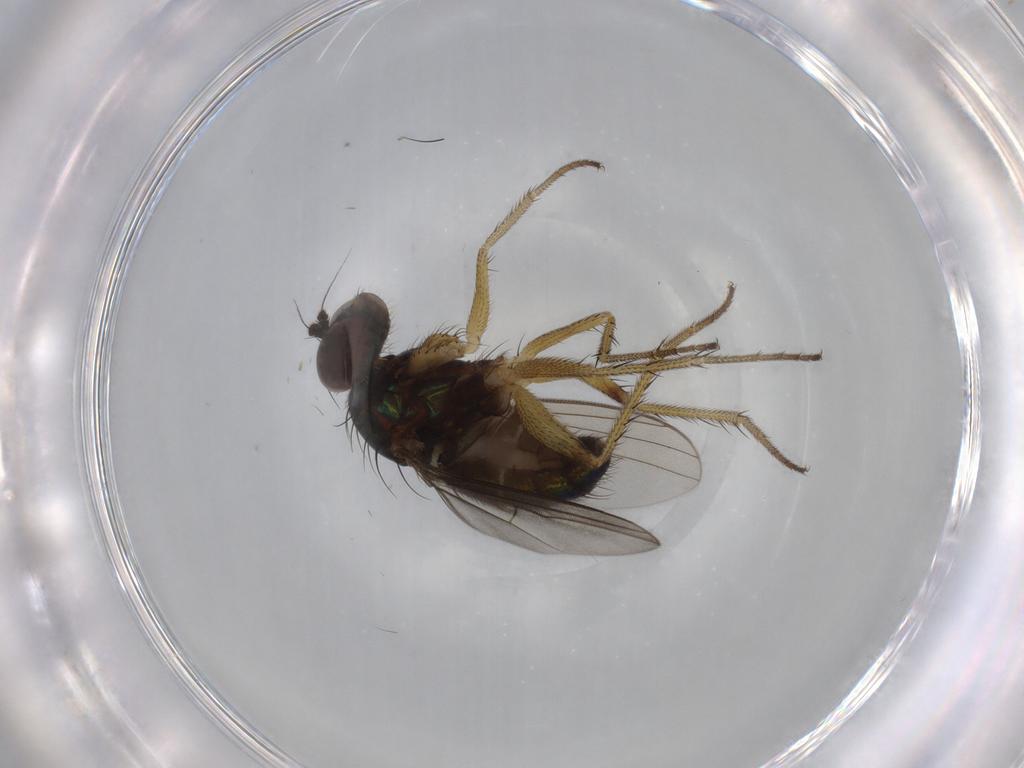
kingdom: Animalia
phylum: Arthropoda
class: Insecta
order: Diptera
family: Dolichopodidae
